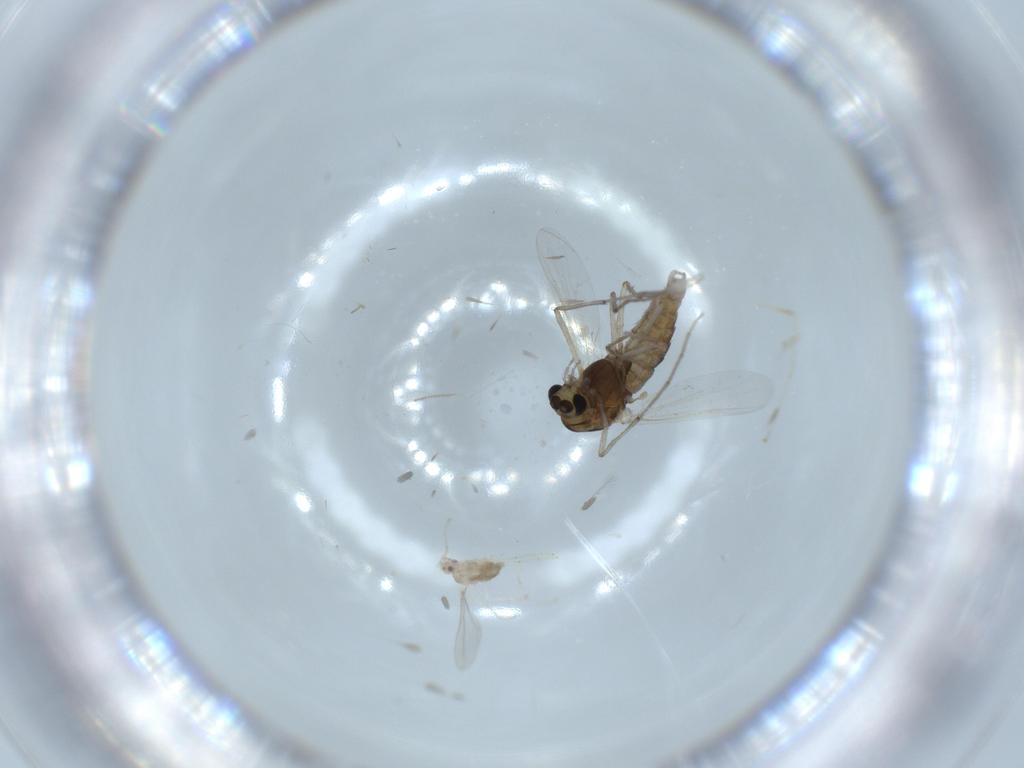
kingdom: Animalia
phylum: Arthropoda
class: Insecta
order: Diptera
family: Chironomidae
